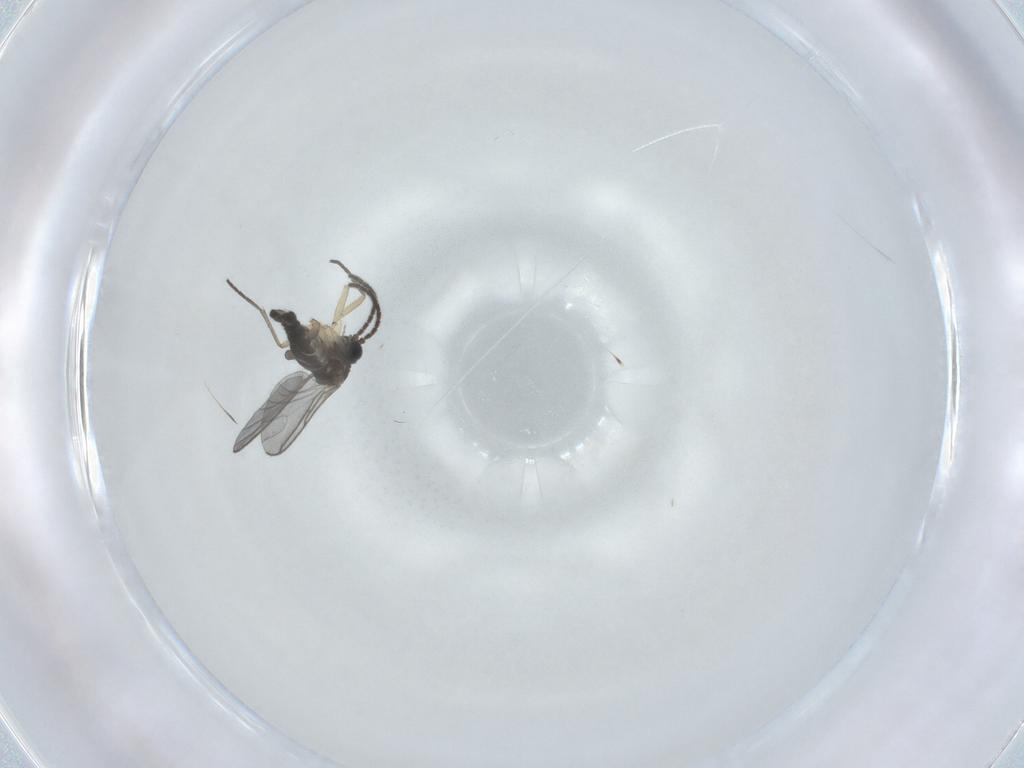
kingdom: Animalia
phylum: Arthropoda
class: Insecta
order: Diptera
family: Sciaridae
